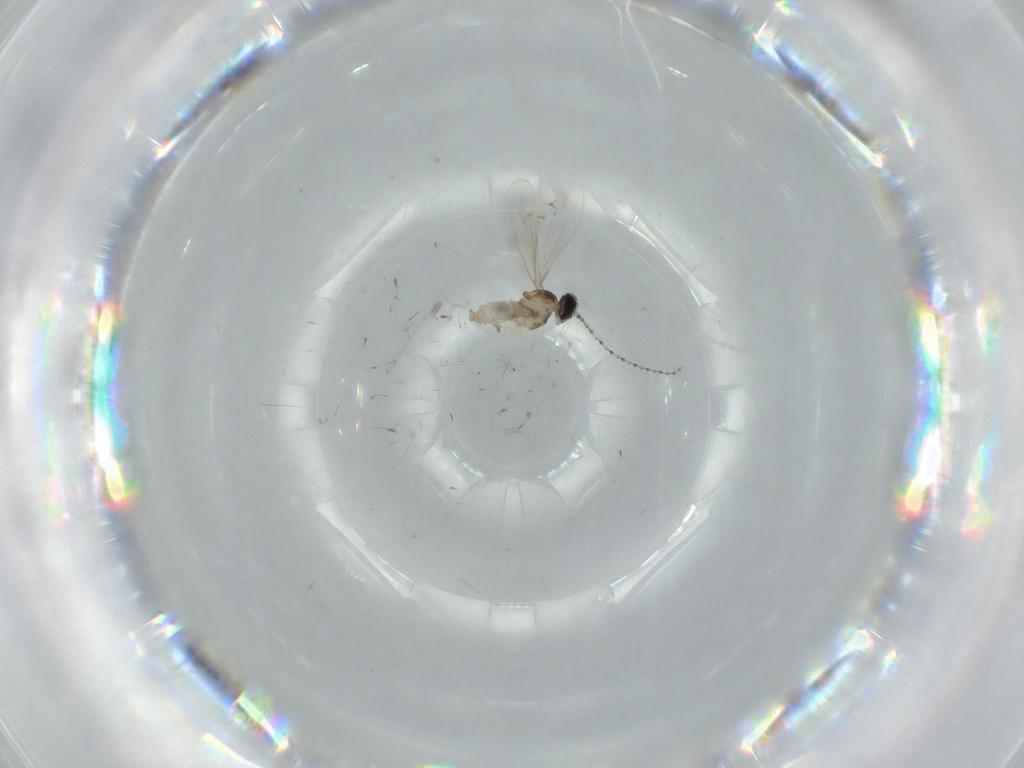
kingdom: Animalia
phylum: Arthropoda
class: Insecta
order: Diptera
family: Cecidomyiidae
